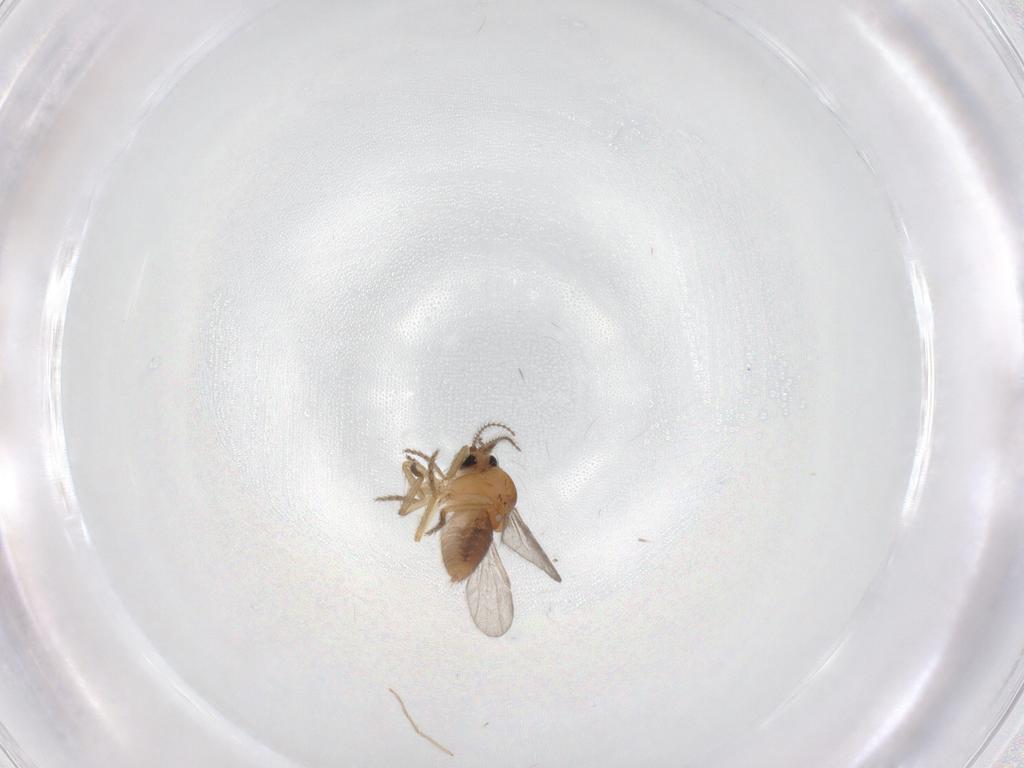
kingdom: Animalia
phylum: Arthropoda
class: Insecta
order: Diptera
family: Ceratopogonidae
